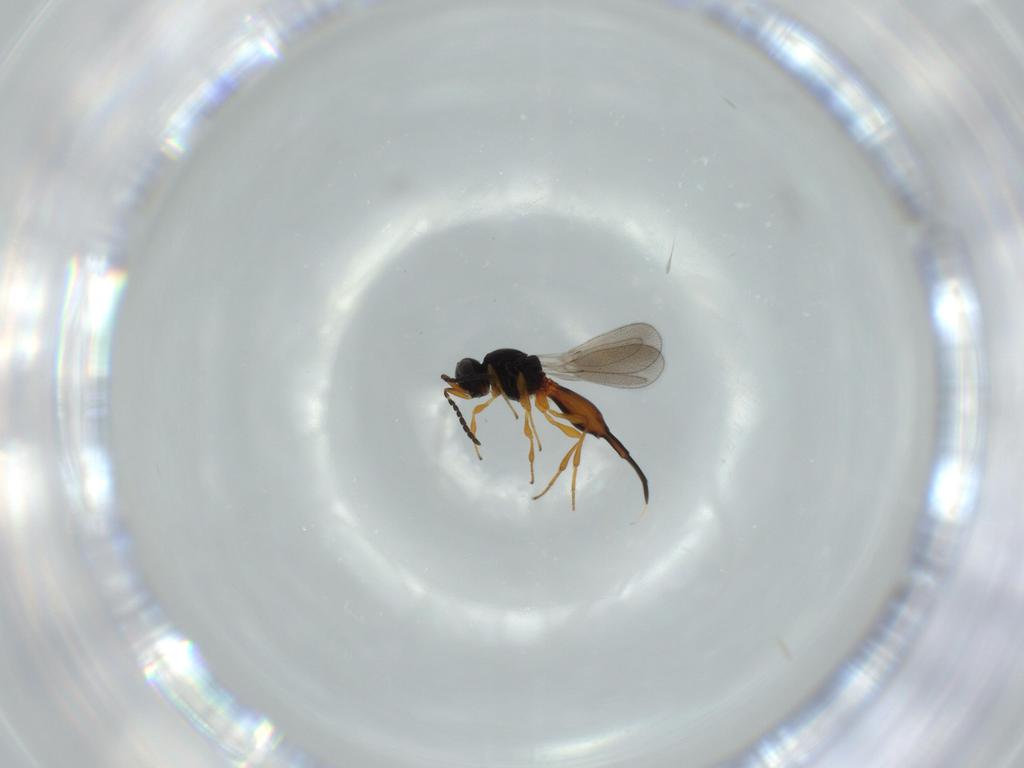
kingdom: Animalia
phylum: Arthropoda
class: Insecta
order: Hymenoptera
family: Platygastridae
